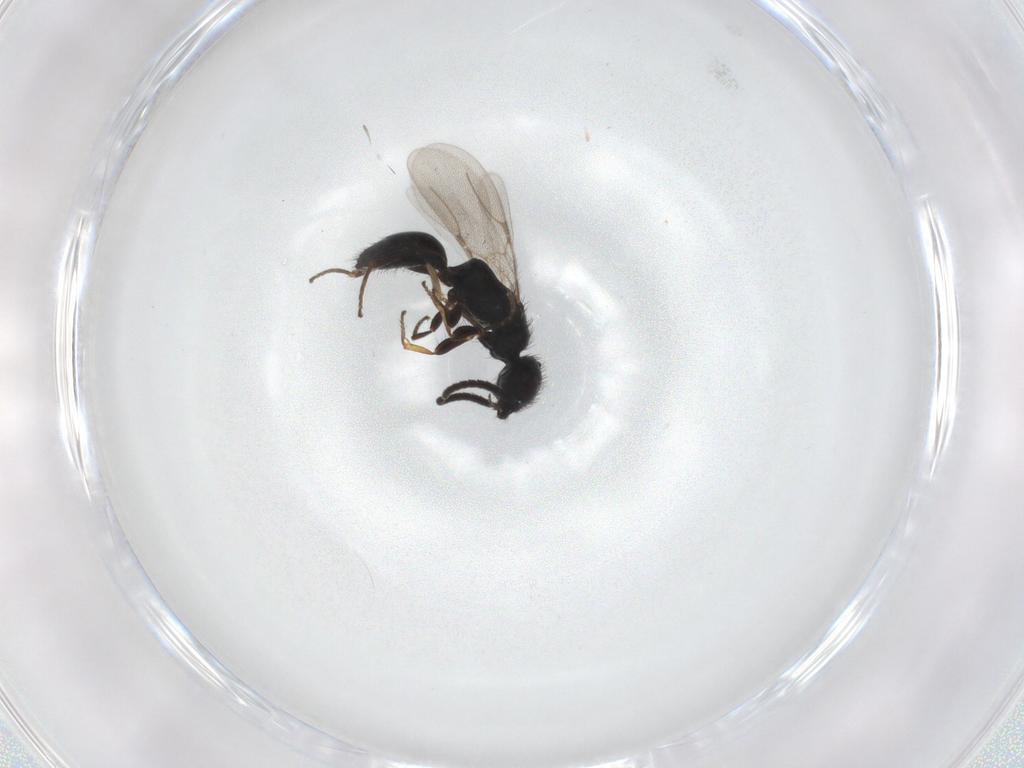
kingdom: Animalia
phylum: Arthropoda
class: Insecta
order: Hymenoptera
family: Bethylidae
